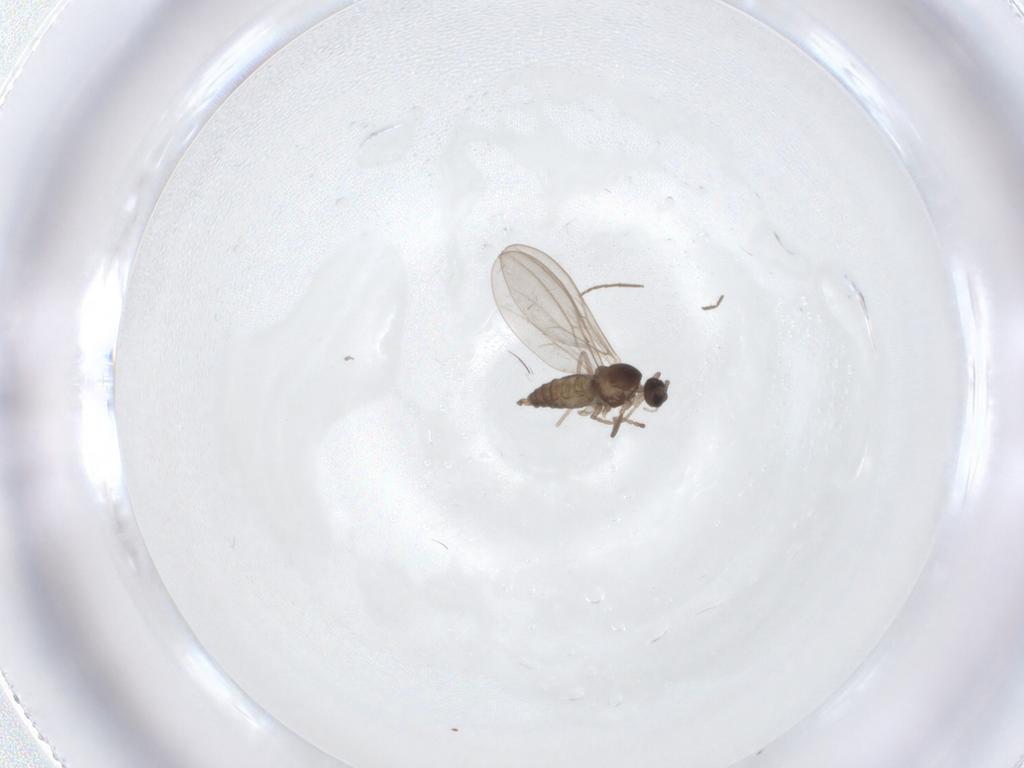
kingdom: Animalia
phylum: Arthropoda
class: Insecta
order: Diptera
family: Cecidomyiidae
